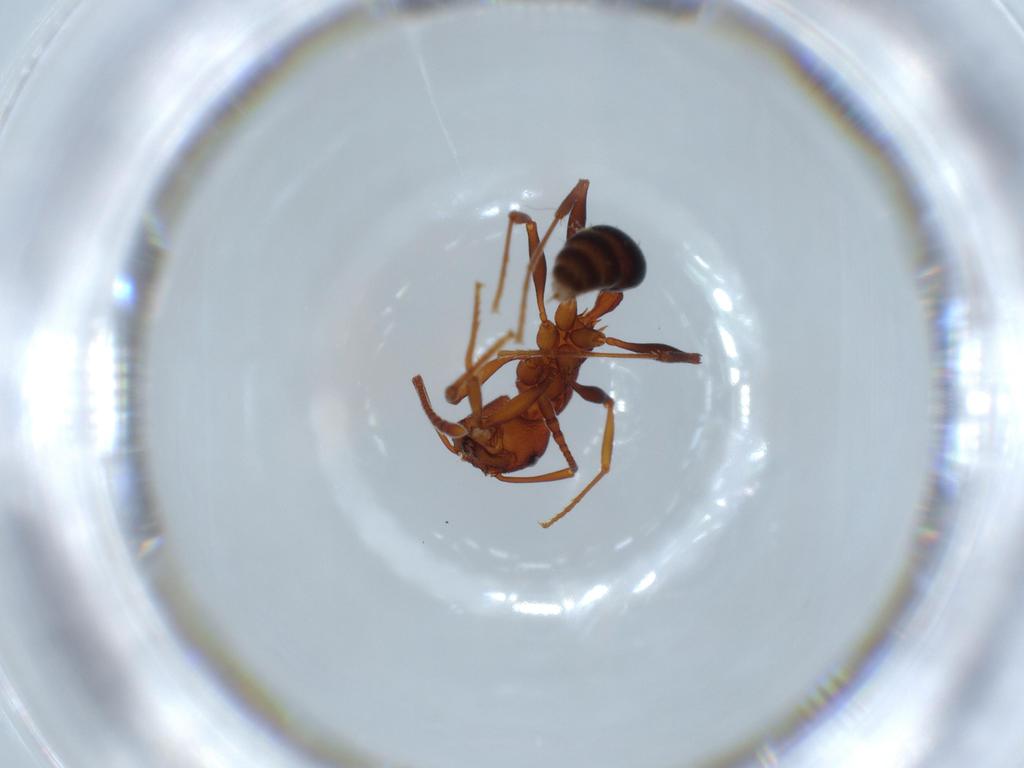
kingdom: Animalia
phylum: Arthropoda
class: Insecta
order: Hymenoptera
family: Formicidae
